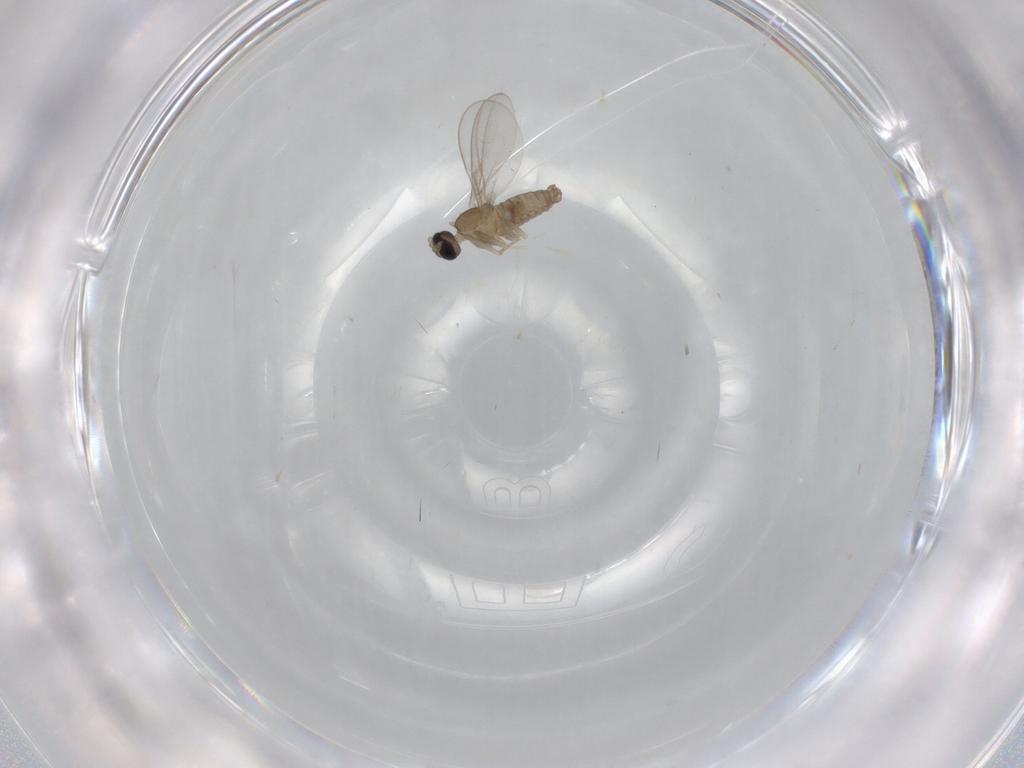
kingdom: Animalia
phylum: Arthropoda
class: Insecta
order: Diptera
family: Cecidomyiidae
